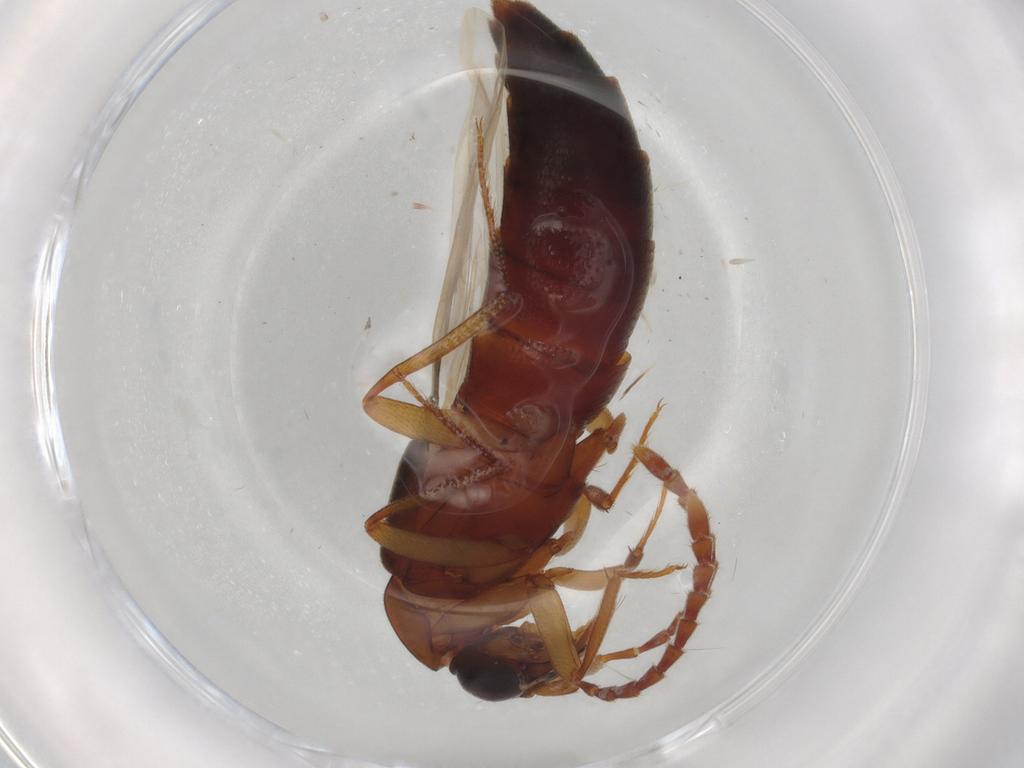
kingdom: Animalia
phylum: Arthropoda
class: Insecta
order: Coleoptera
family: Staphylinidae
